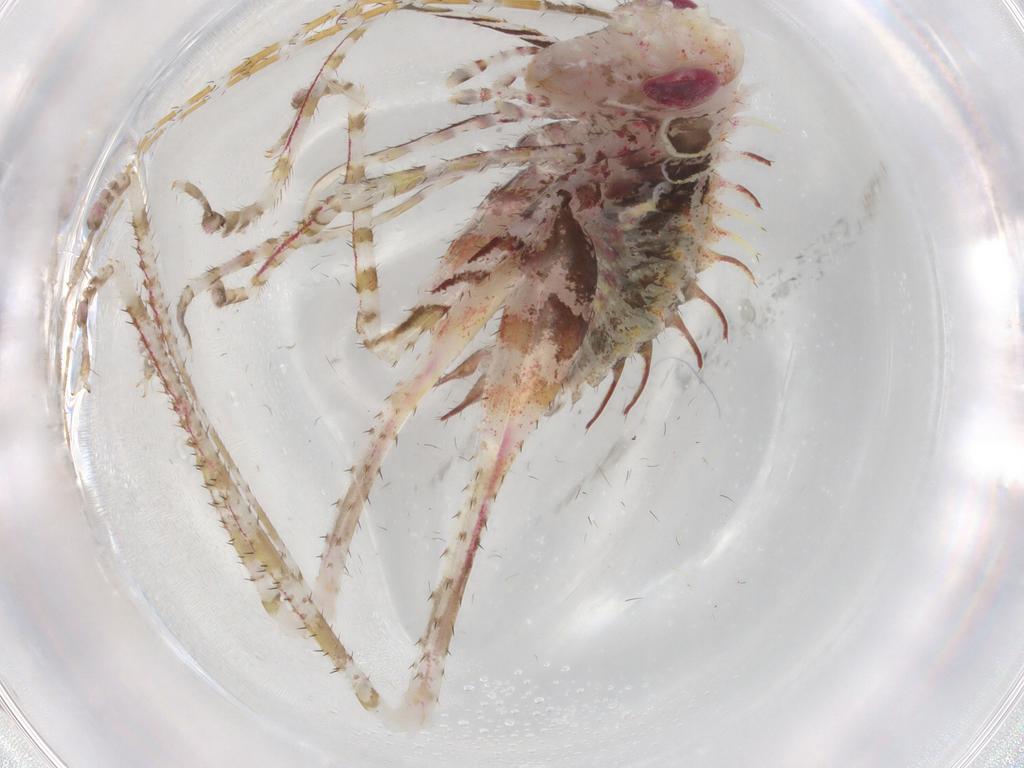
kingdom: Animalia
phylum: Arthropoda
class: Insecta
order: Orthoptera
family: Tettigoniidae
